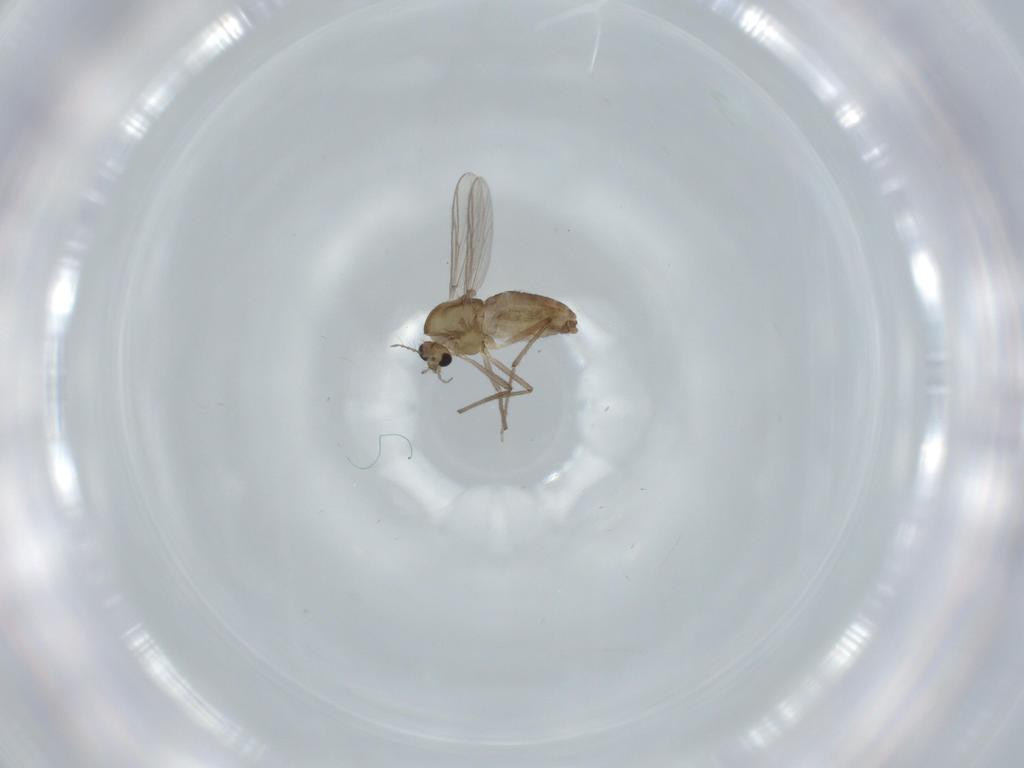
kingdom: Animalia
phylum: Arthropoda
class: Insecta
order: Diptera
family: Chironomidae
